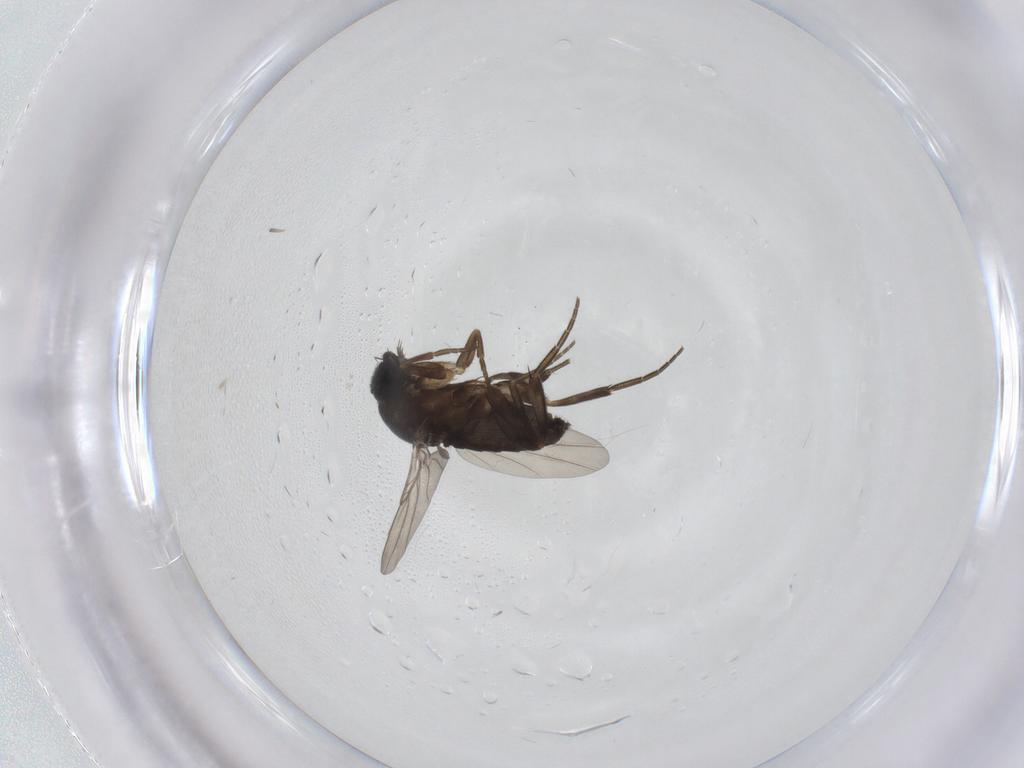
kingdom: Animalia
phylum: Arthropoda
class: Insecta
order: Diptera
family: Phoridae
